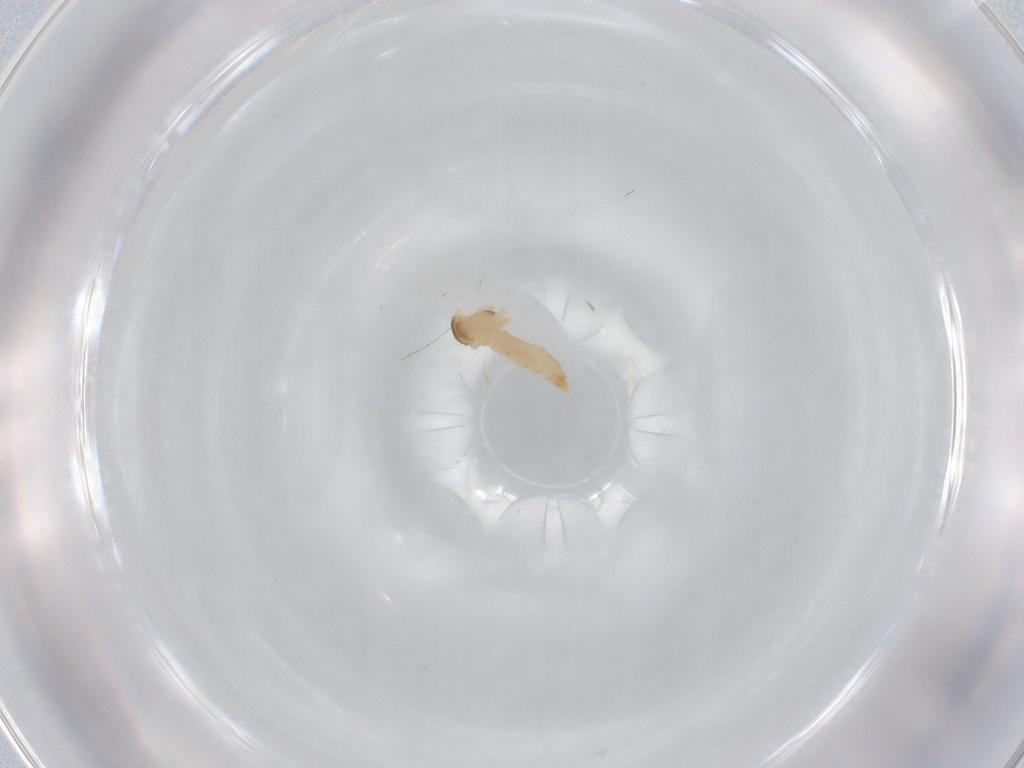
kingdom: Animalia
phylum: Arthropoda
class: Insecta
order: Diptera
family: Cecidomyiidae
